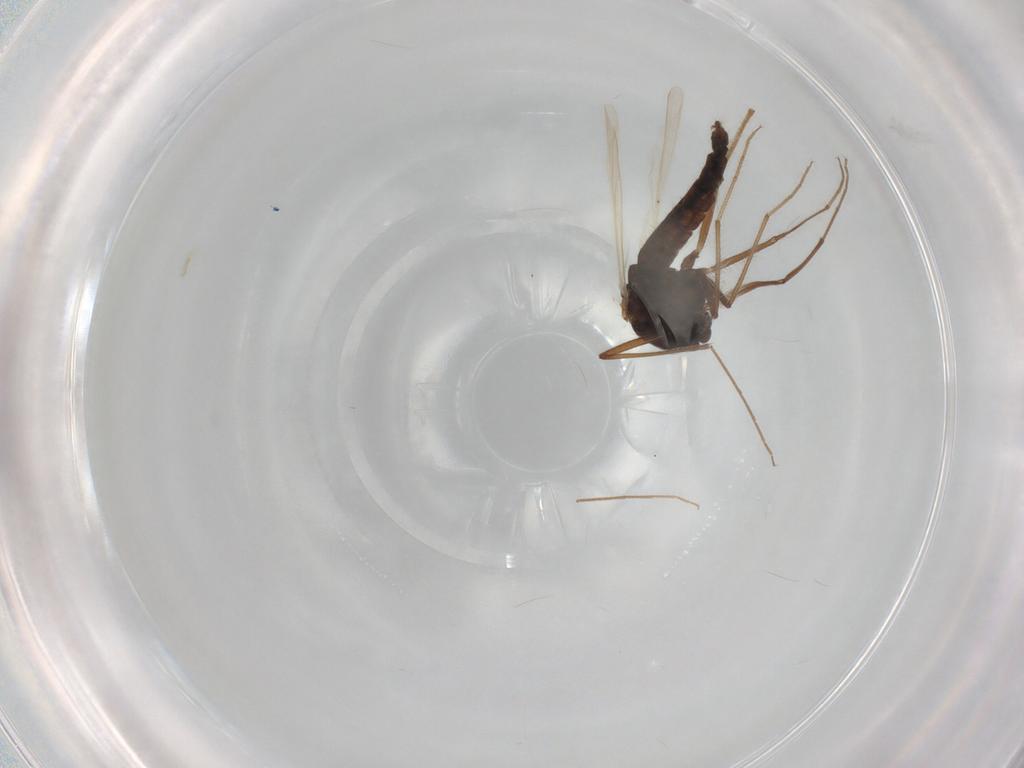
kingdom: Animalia
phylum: Arthropoda
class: Insecta
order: Diptera
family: Chironomidae
